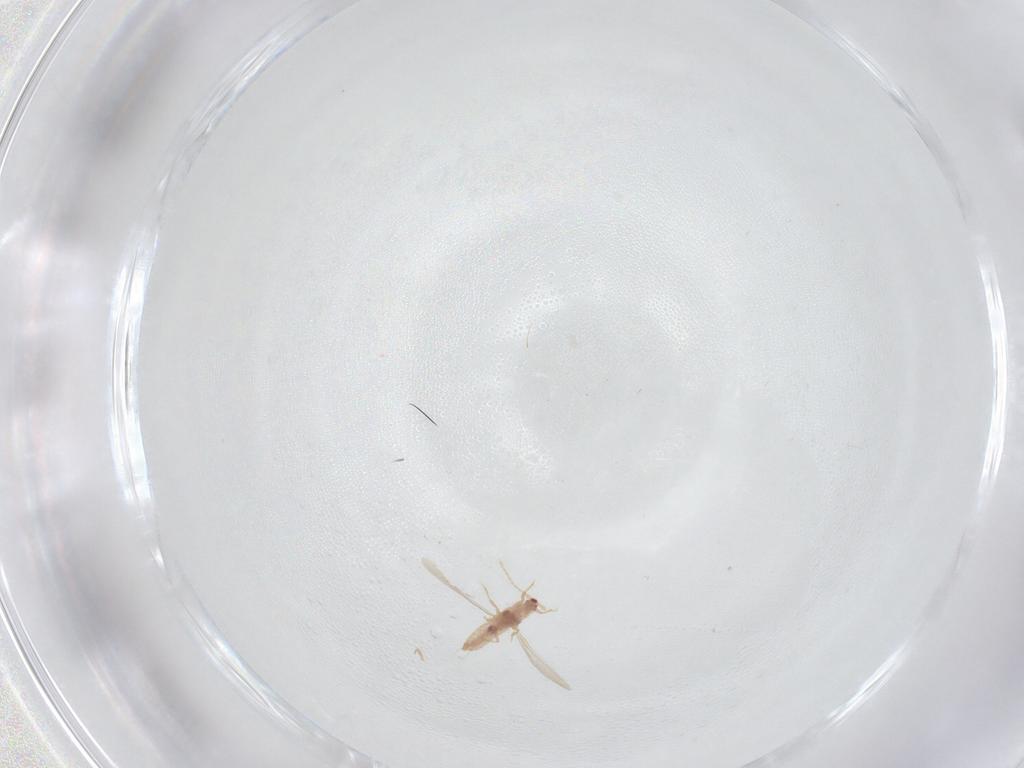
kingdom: Animalia
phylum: Arthropoda
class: Insecta
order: Hemiptera
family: Pseudococcidae
